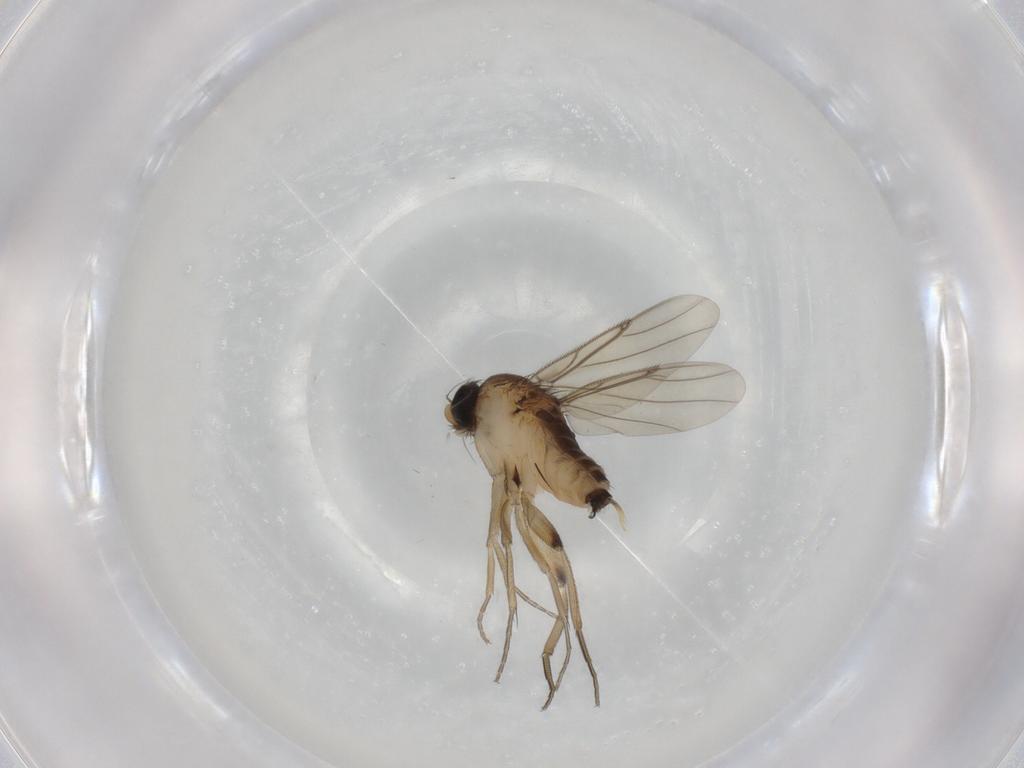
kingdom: Animalia
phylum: Arthropoda
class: Insecta
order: Diptera
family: Phoridae
